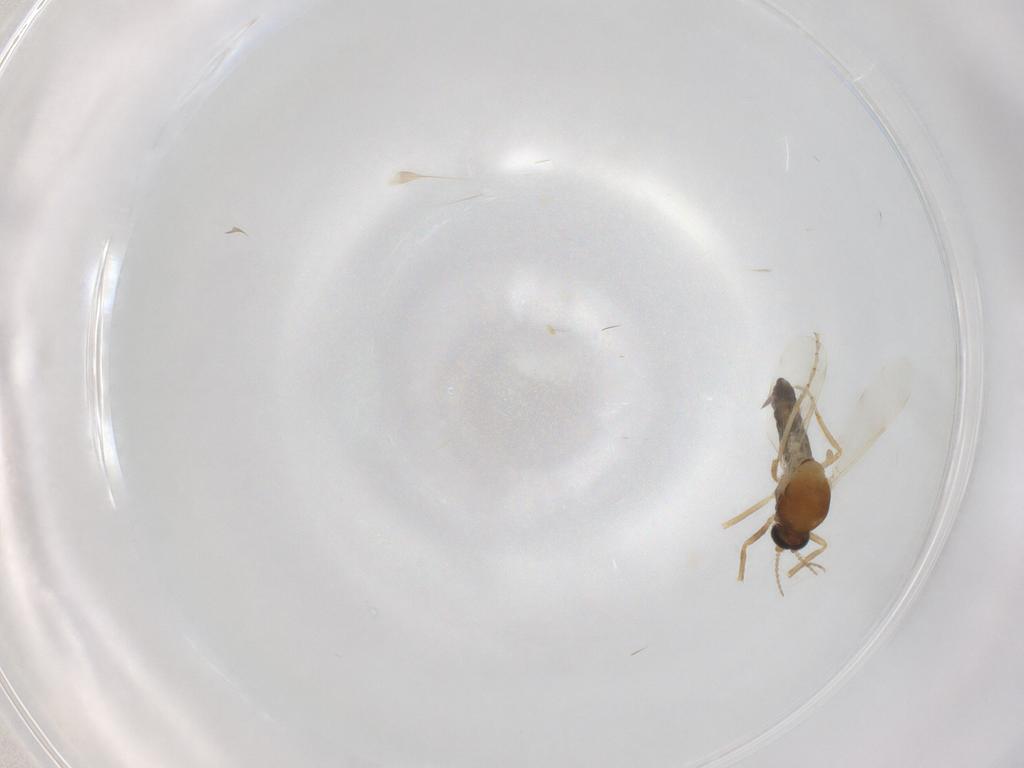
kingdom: Animalia
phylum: Arthropoda
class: Insecta
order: Diptera
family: Ceratopogonidae
